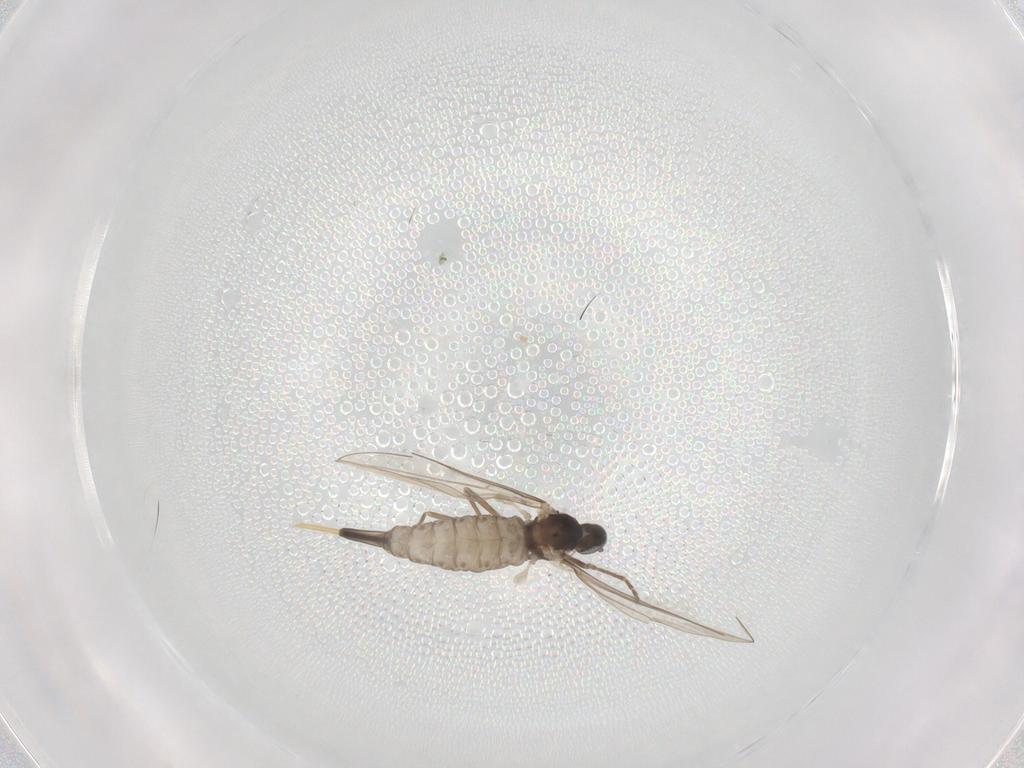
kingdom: Animalia
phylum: Arthropoda
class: Insecta
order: Diptera
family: Cecidomyiidae
